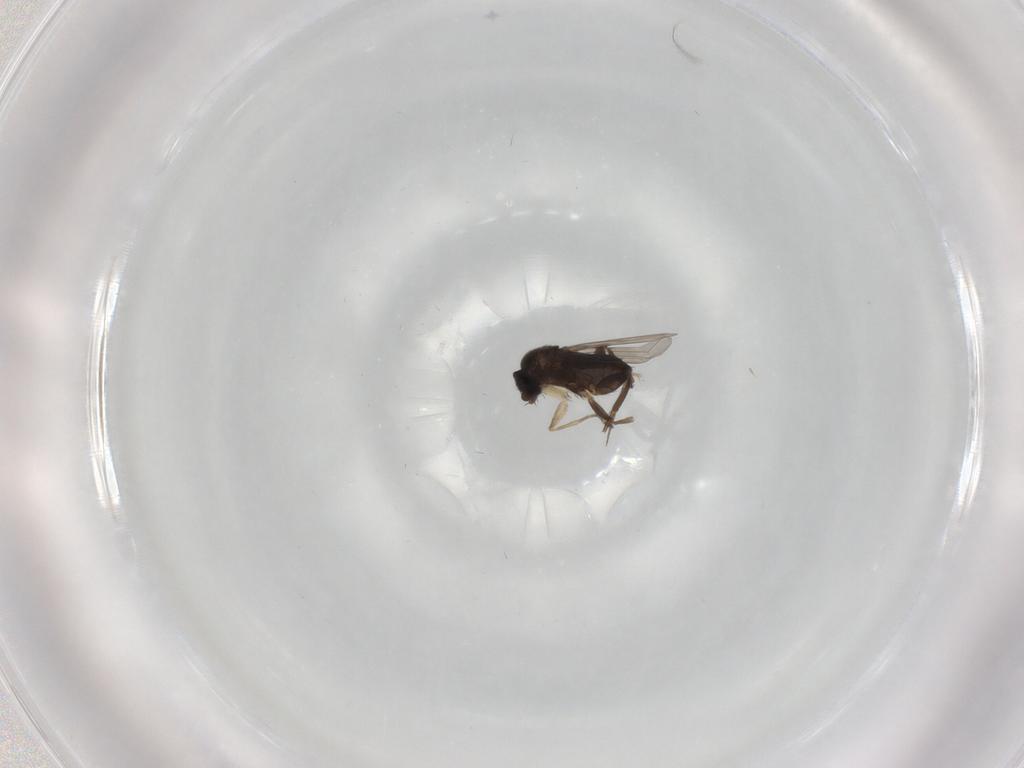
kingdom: Animalia
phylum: Arthropoda
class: Insecta
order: Diptera
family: Phoridae
